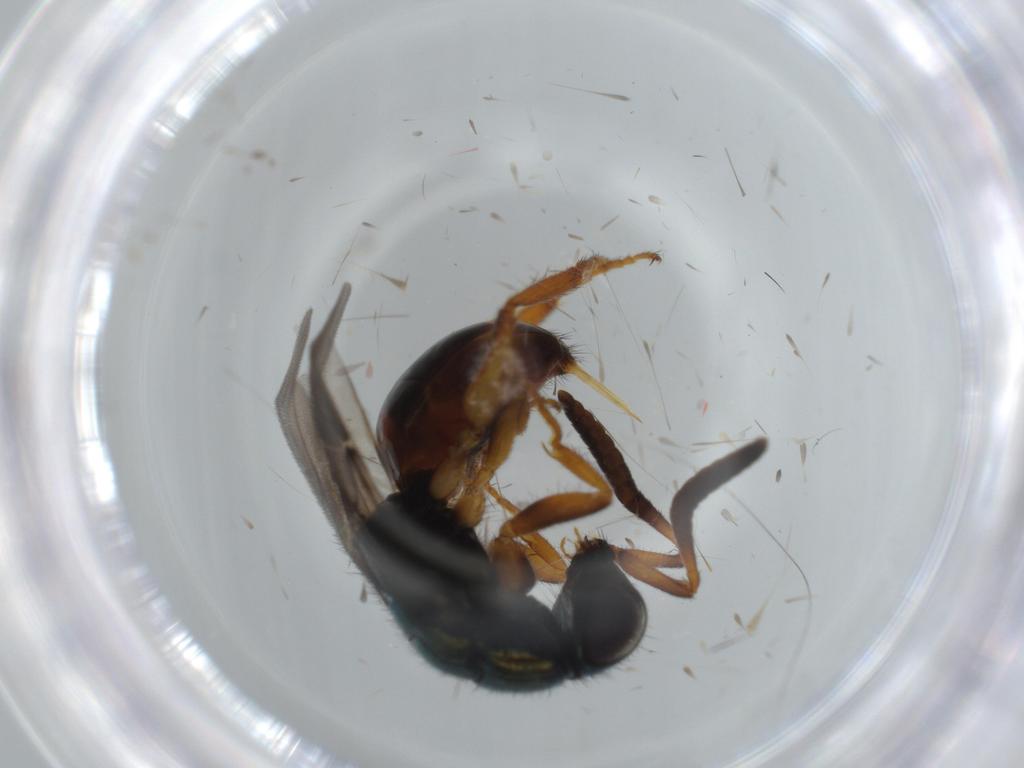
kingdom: Animalia
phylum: Arthropoda
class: Insecta
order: Hymenoptera
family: Chrysididae
